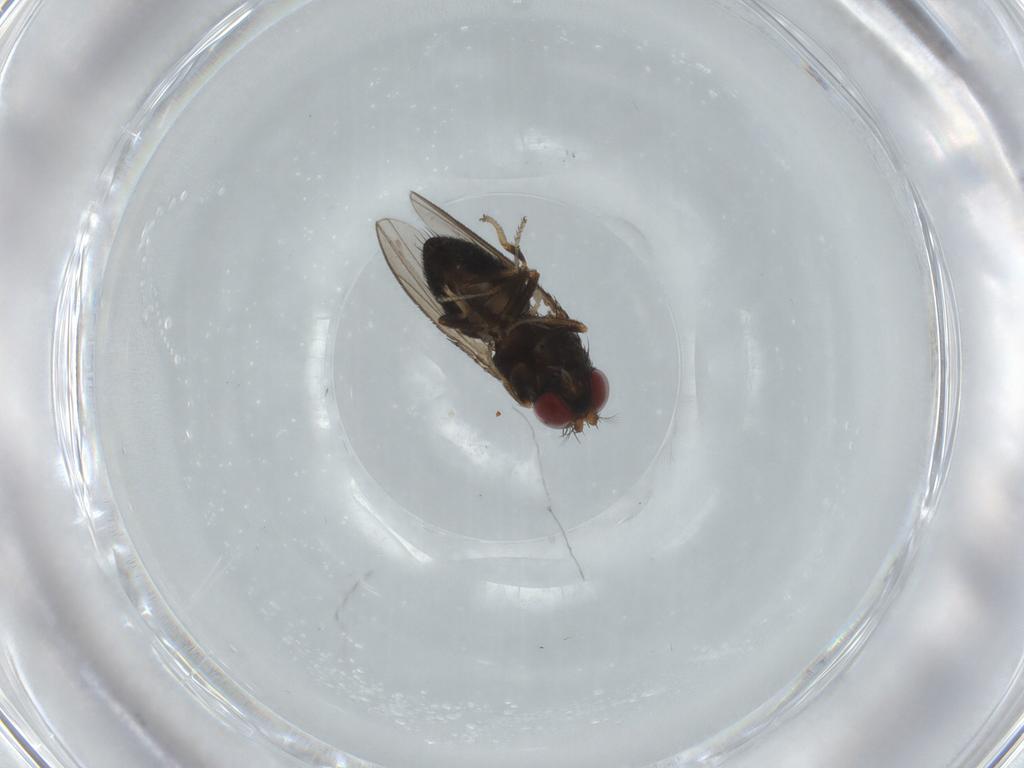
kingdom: Animalia
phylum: Arthropoda
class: Insecta
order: Diptera
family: Ephydridae
